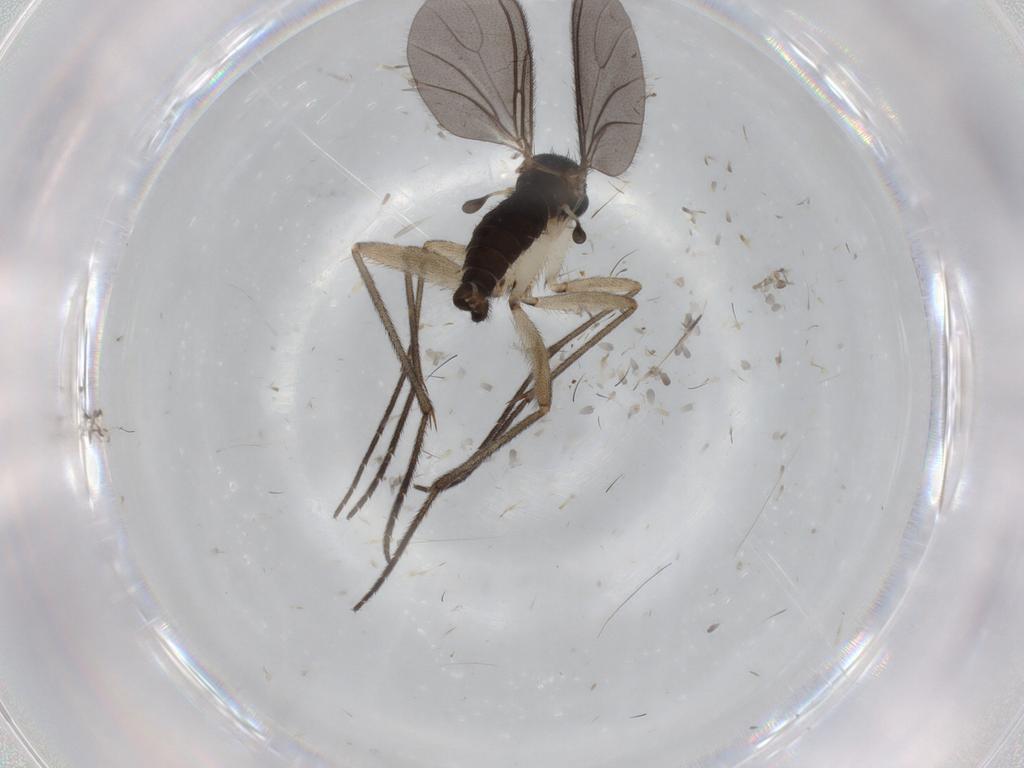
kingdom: Animalia
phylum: Arthropoda
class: Insecta
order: Diptera
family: Sciaridae
